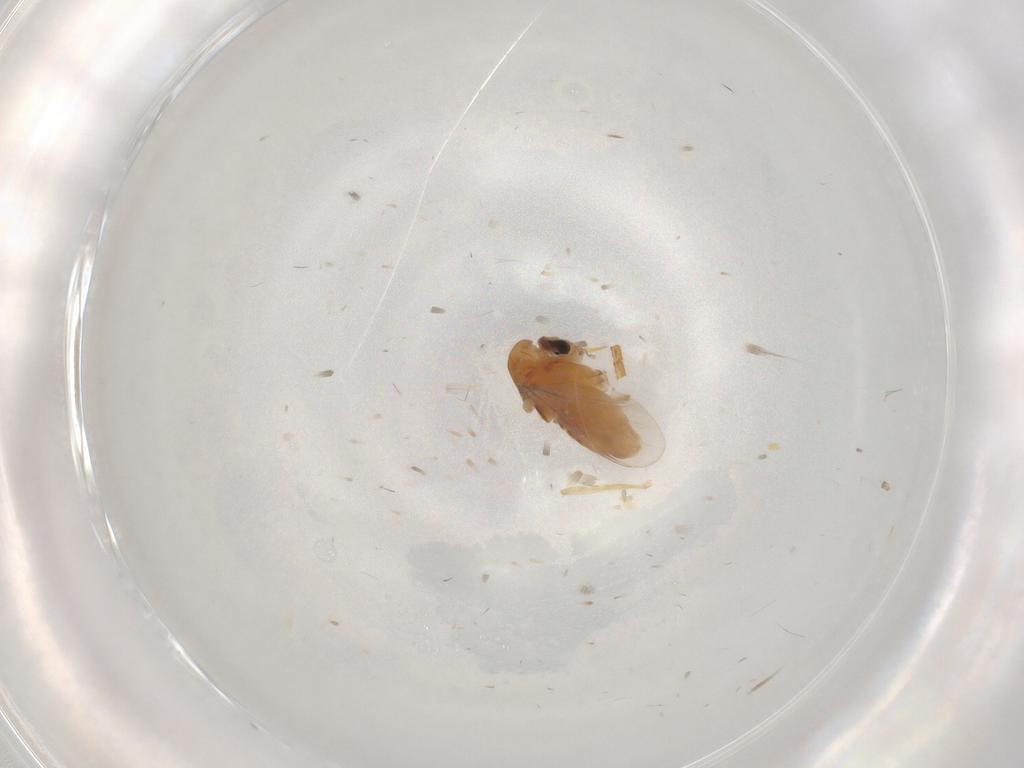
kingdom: Animalia
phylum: Arthropoda
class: Insecta
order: Diptera
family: Chironomidae
